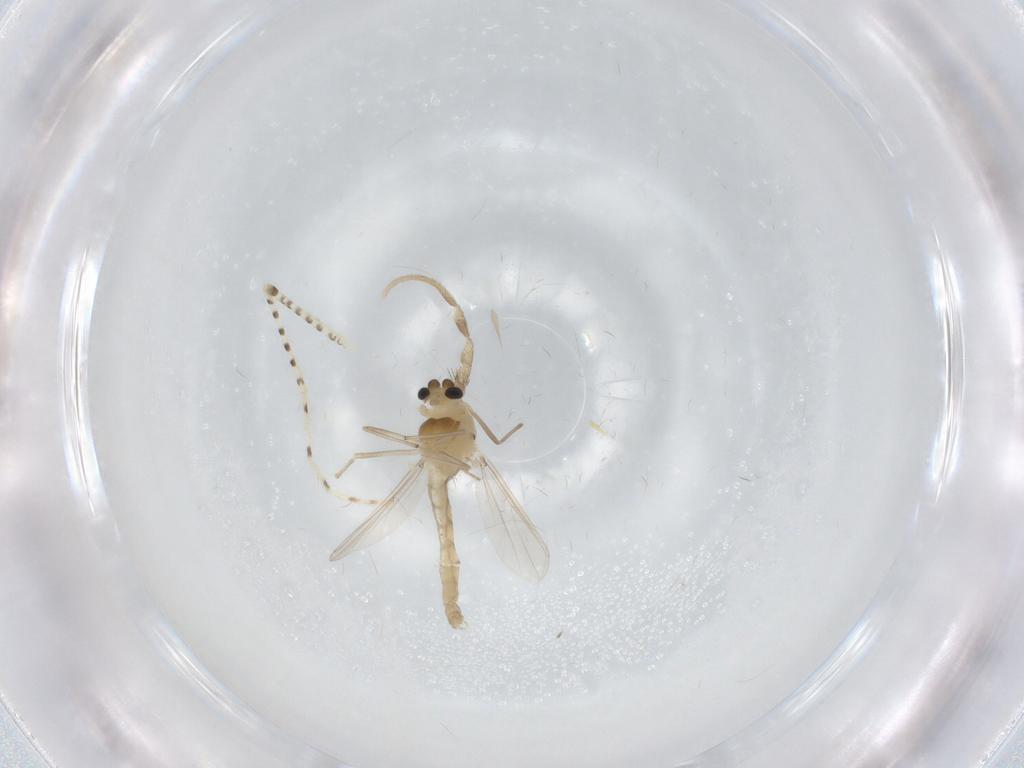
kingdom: Animalia
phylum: Arthropoda
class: Insecta
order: Diptera
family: Chironomidae
